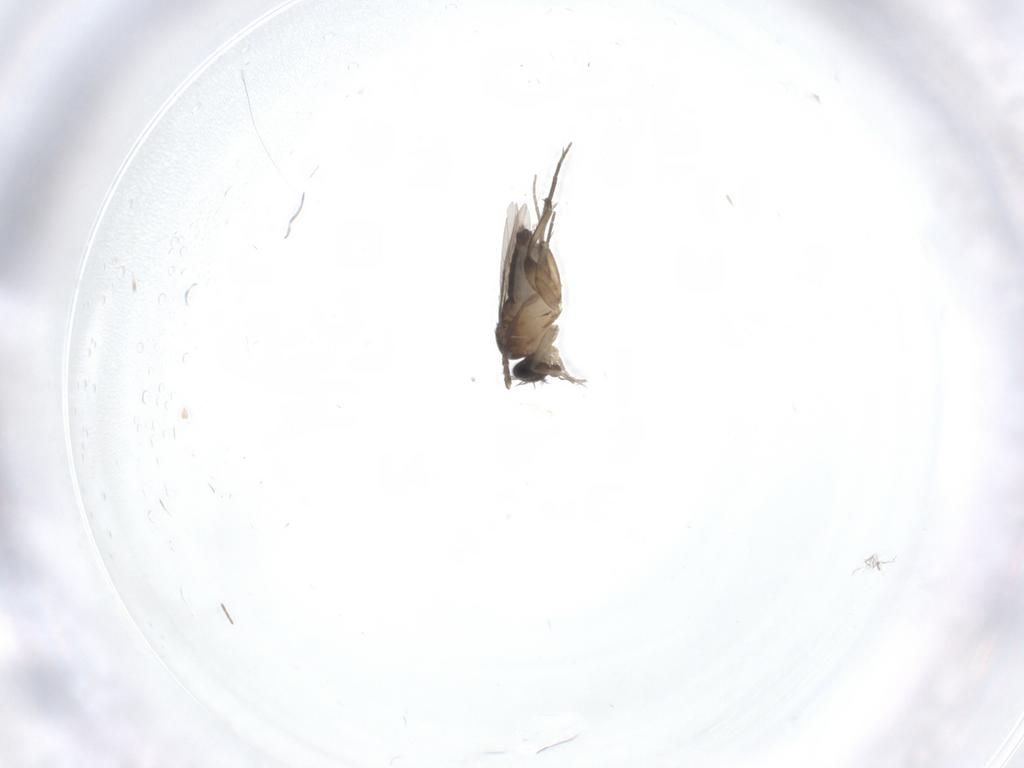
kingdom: Animalia
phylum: Arthropoda
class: Insecta
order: Diptera
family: Phoridae
